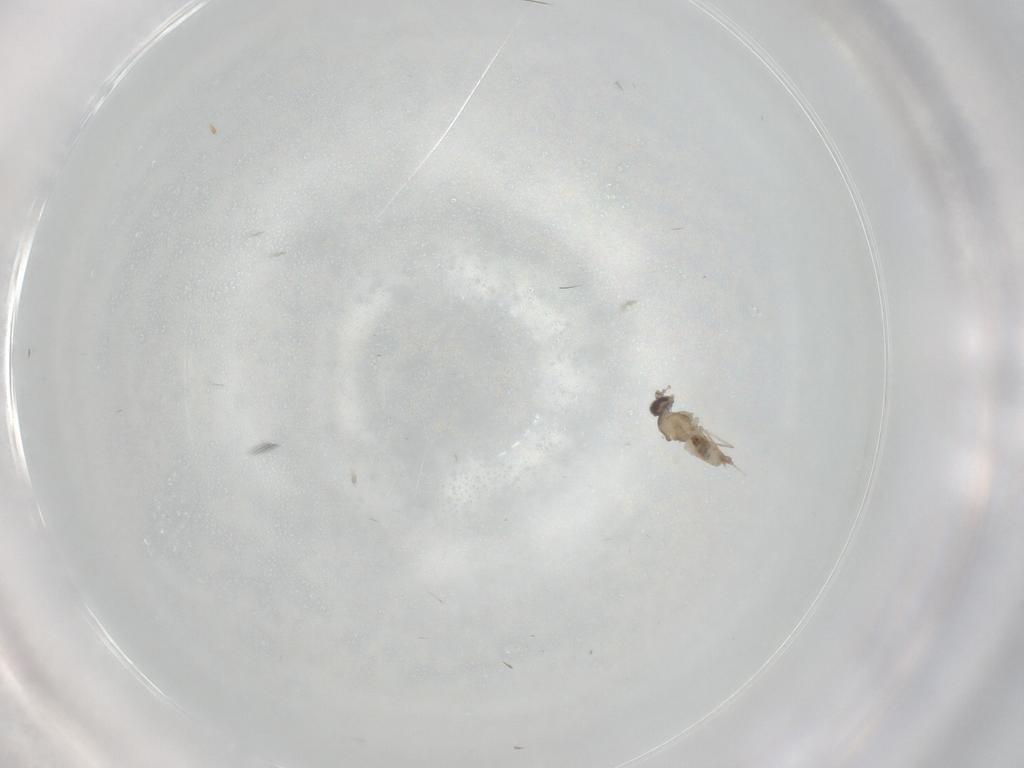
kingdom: Animalia
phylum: Arthropoda
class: Insecta
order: Diptera
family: Cecidomyiidae
